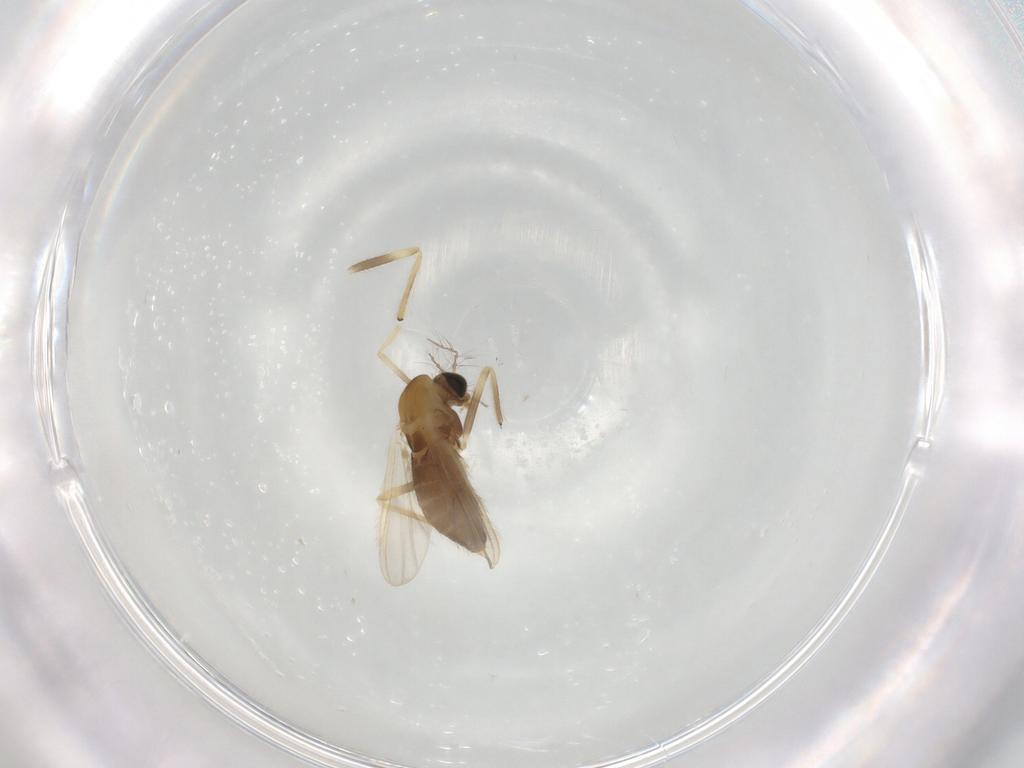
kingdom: Animalia
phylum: Arthropoda
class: Insecta
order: Diptera
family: Chironomidae
